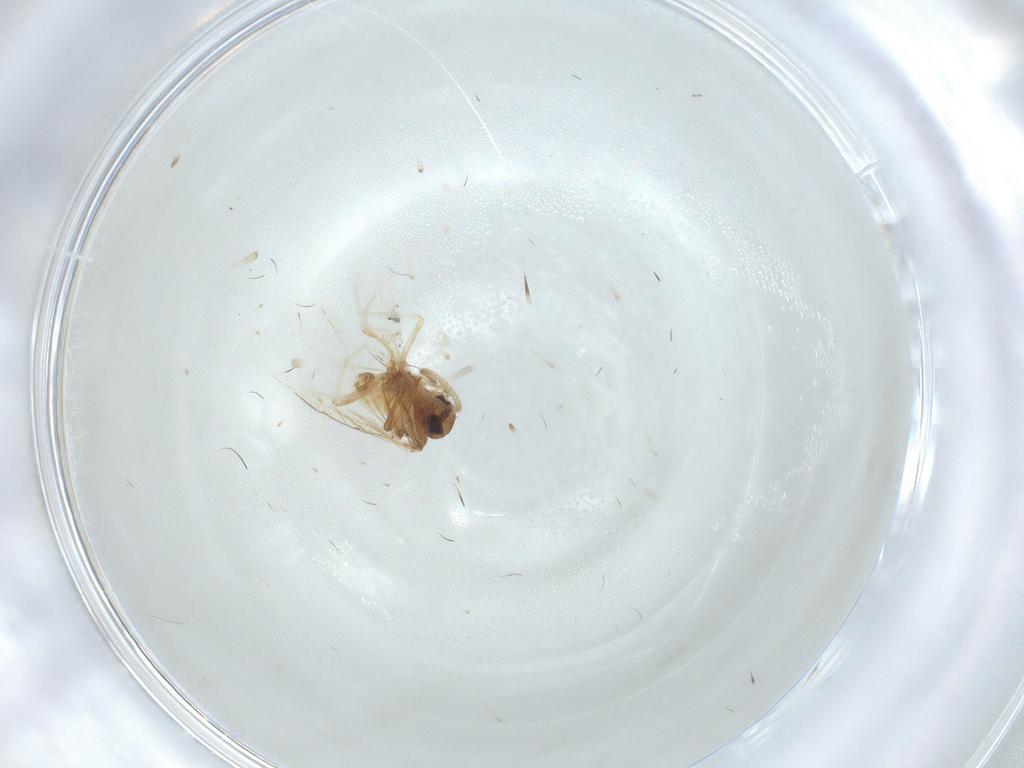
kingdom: Animalia
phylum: Arthropoda
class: Insecta
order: Neuroptera
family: Coniopterygidae
